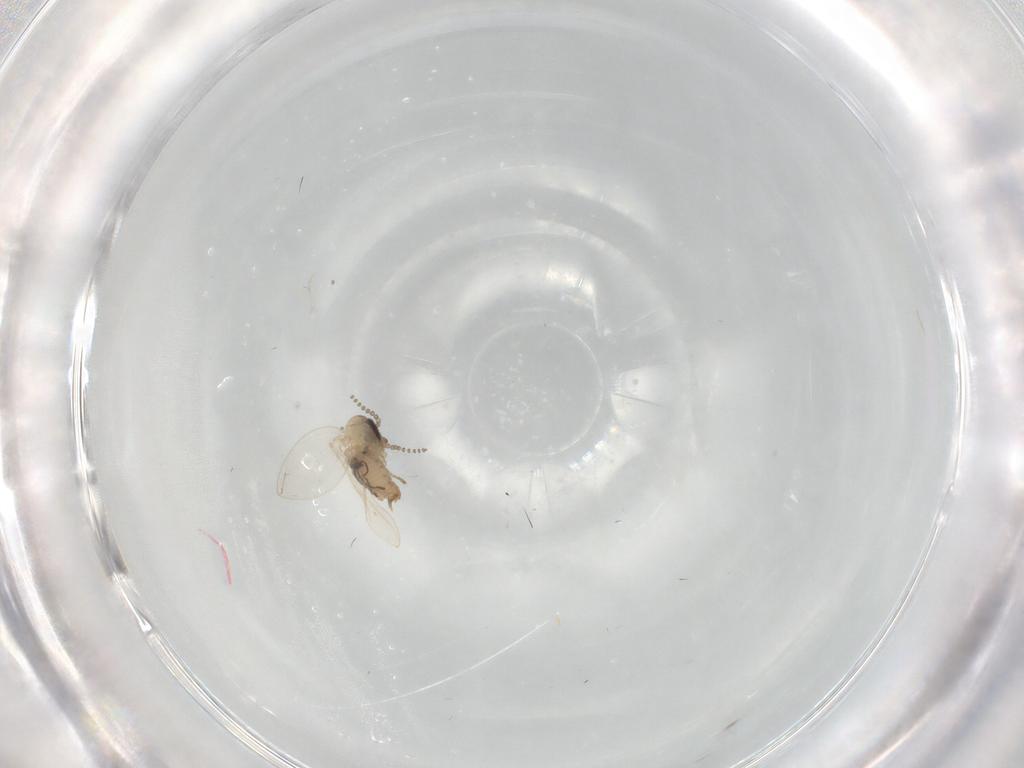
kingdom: Animalia
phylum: Arthropoda
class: Insecta
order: Diptera
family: Psychodidae
